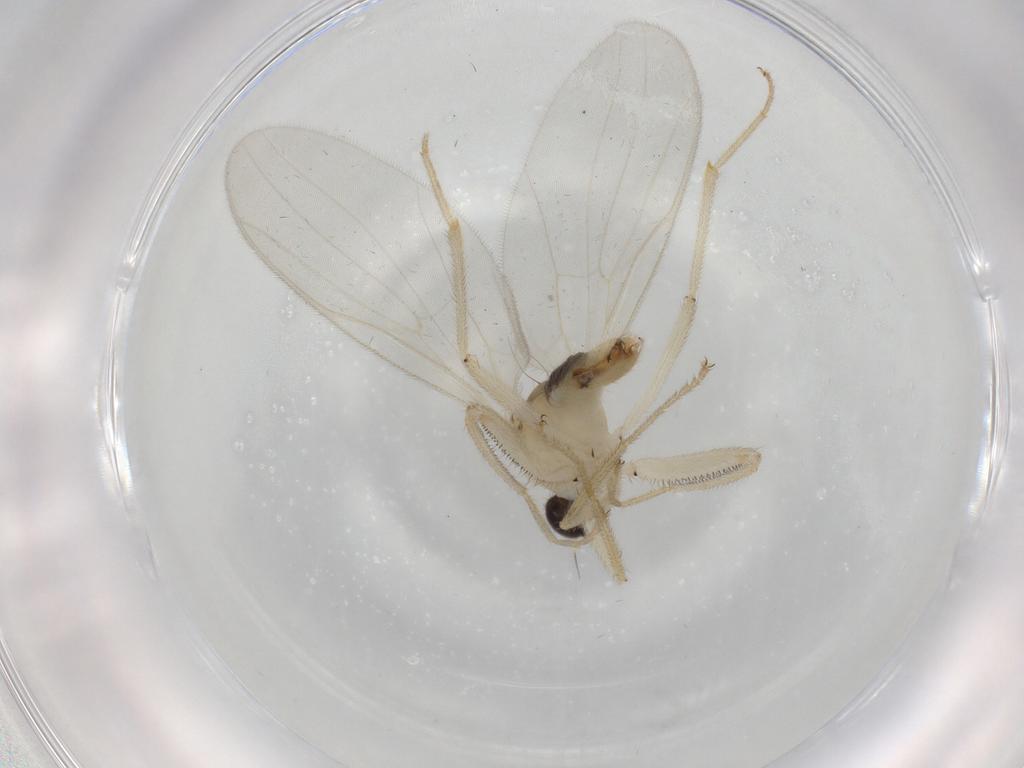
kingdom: Animalia
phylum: Arthropoda
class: Insecta
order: Diptera
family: Hybotidae
